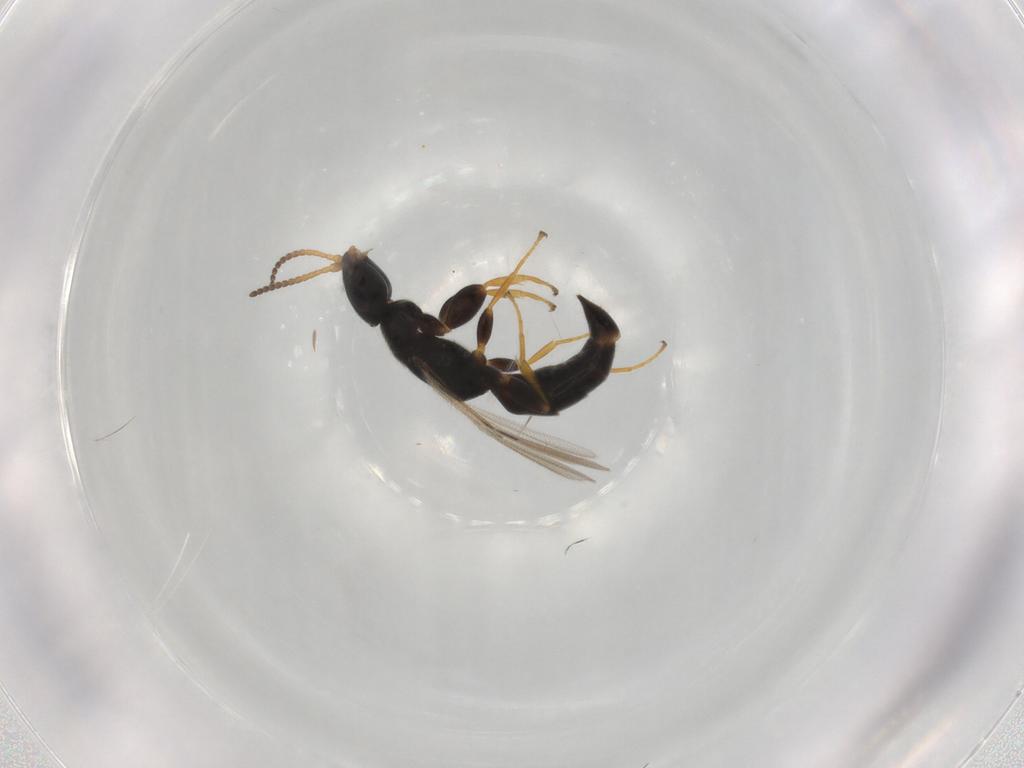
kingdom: Animalia
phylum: Arthropoda
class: Insecta
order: Hymenoptera
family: Bethylidae
